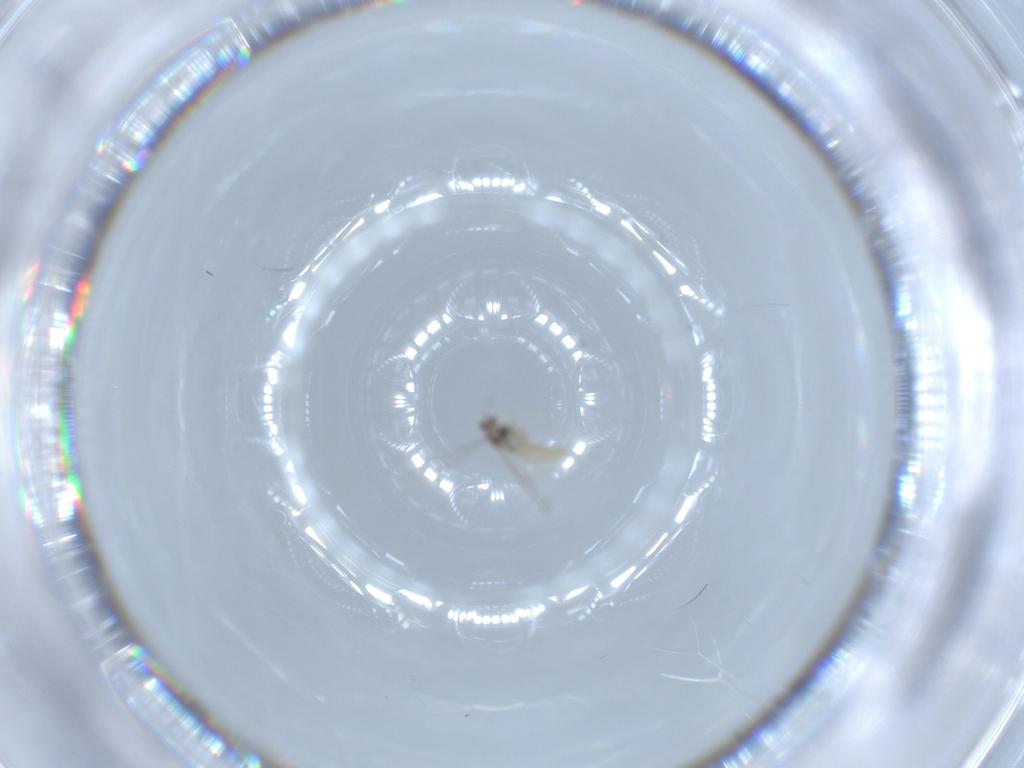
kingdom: Animalia
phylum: Arthropoda
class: Insecta
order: Diptera
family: Cecidomyiidae
